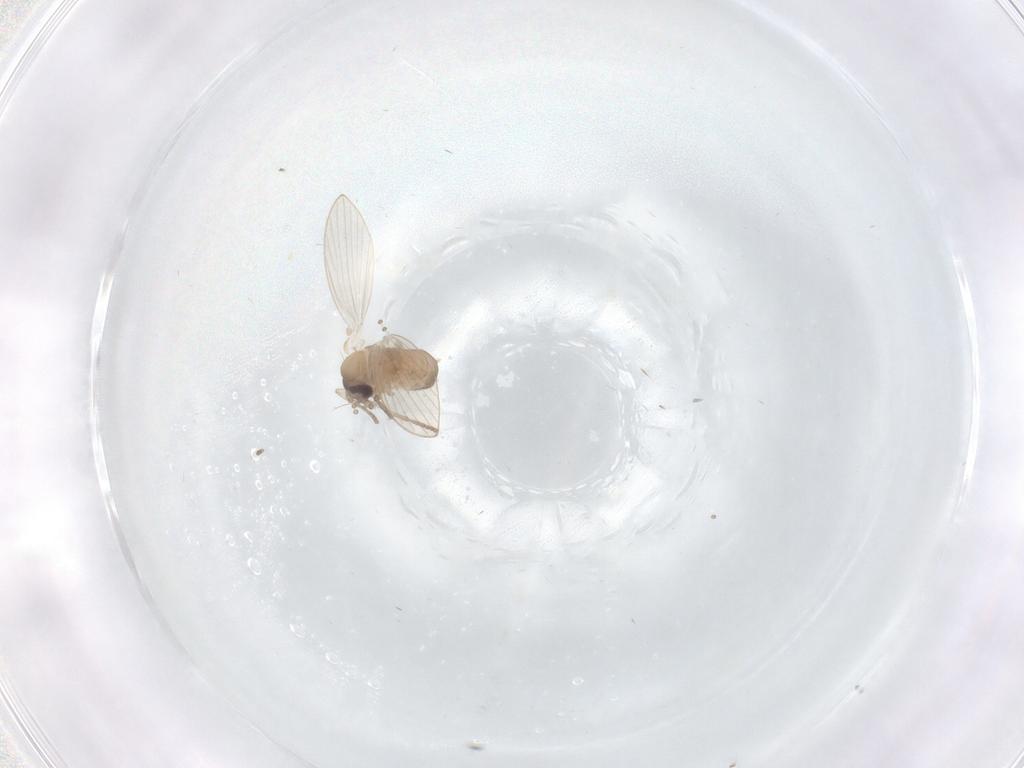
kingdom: Animalia
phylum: Arthropoda
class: Insecta
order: Diptera
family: Psychodidae
